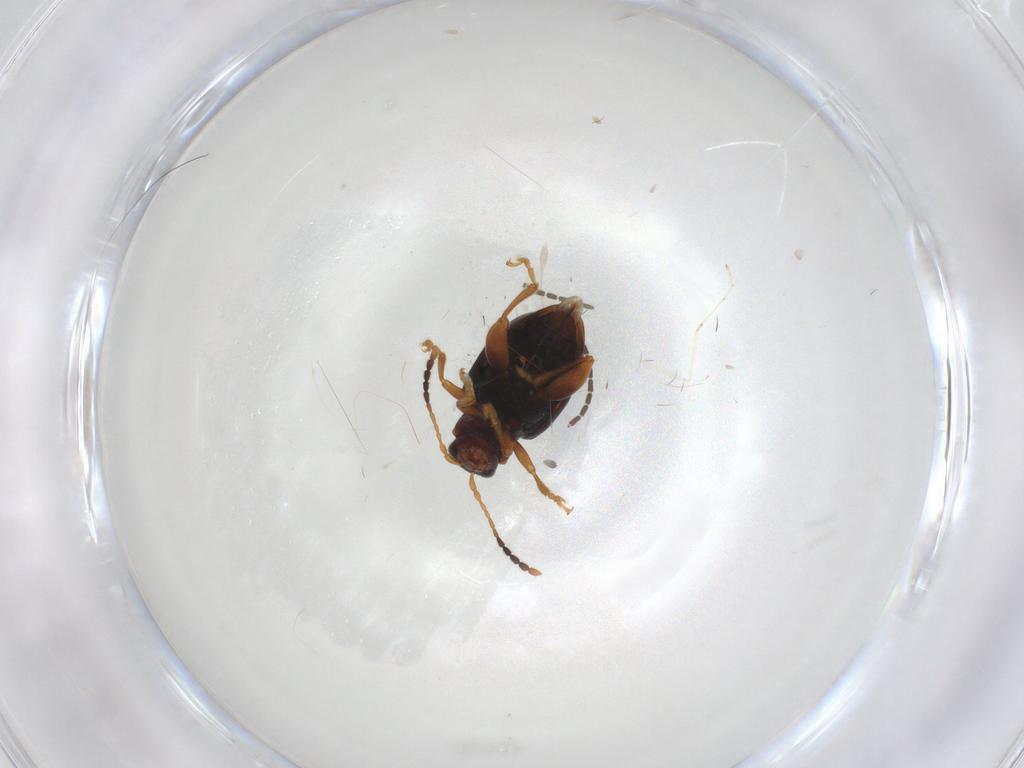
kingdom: Animalia
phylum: Arthropoda
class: Insecta
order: Coleoptera
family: Chrysomelidae
